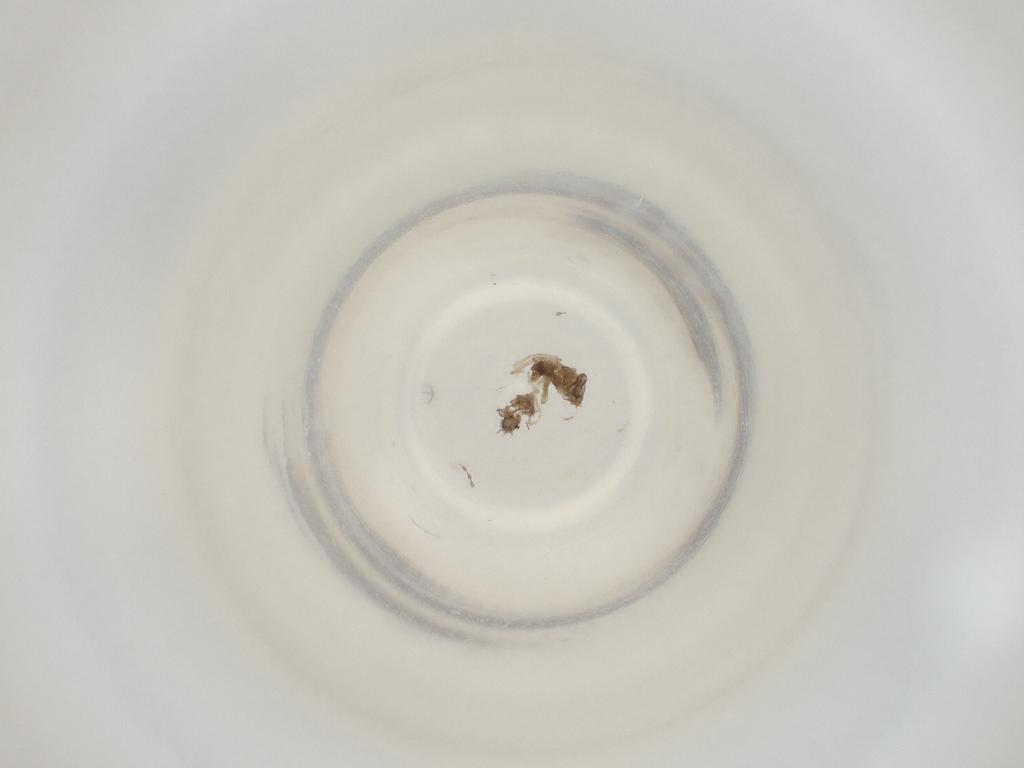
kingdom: Animalia
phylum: Arthropoda
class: Insecta
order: Diptera
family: Cecidomyiidae
